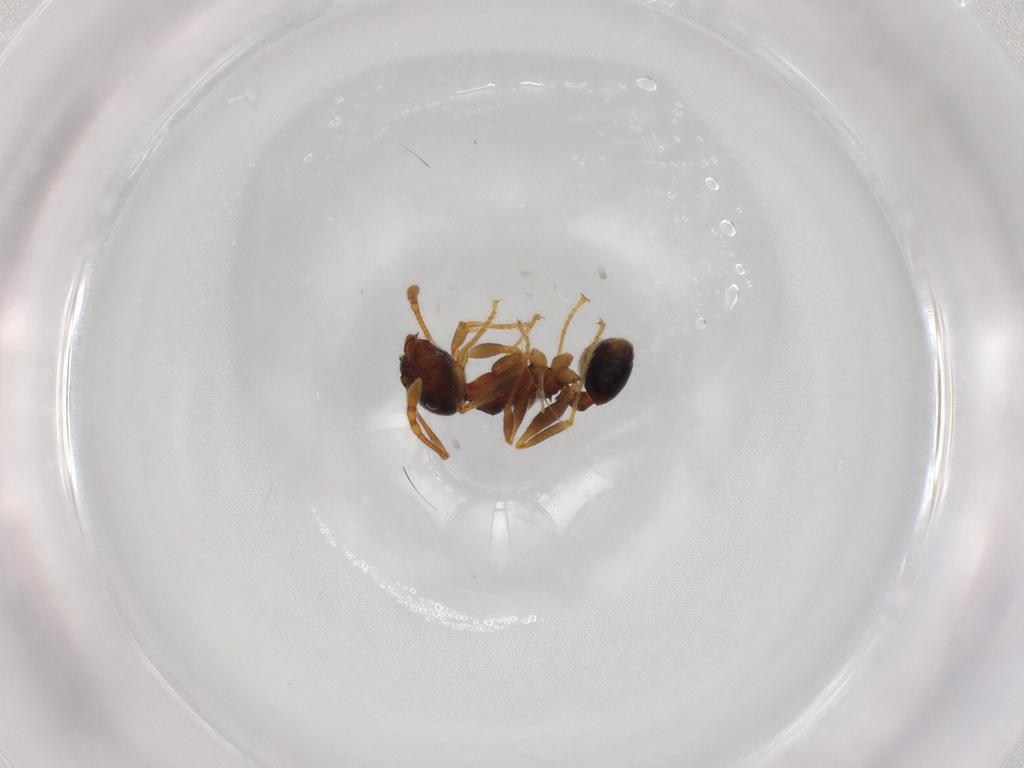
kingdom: Animalia
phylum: Arthropoda
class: Insecta
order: Hymenoptera
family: Formicidae
